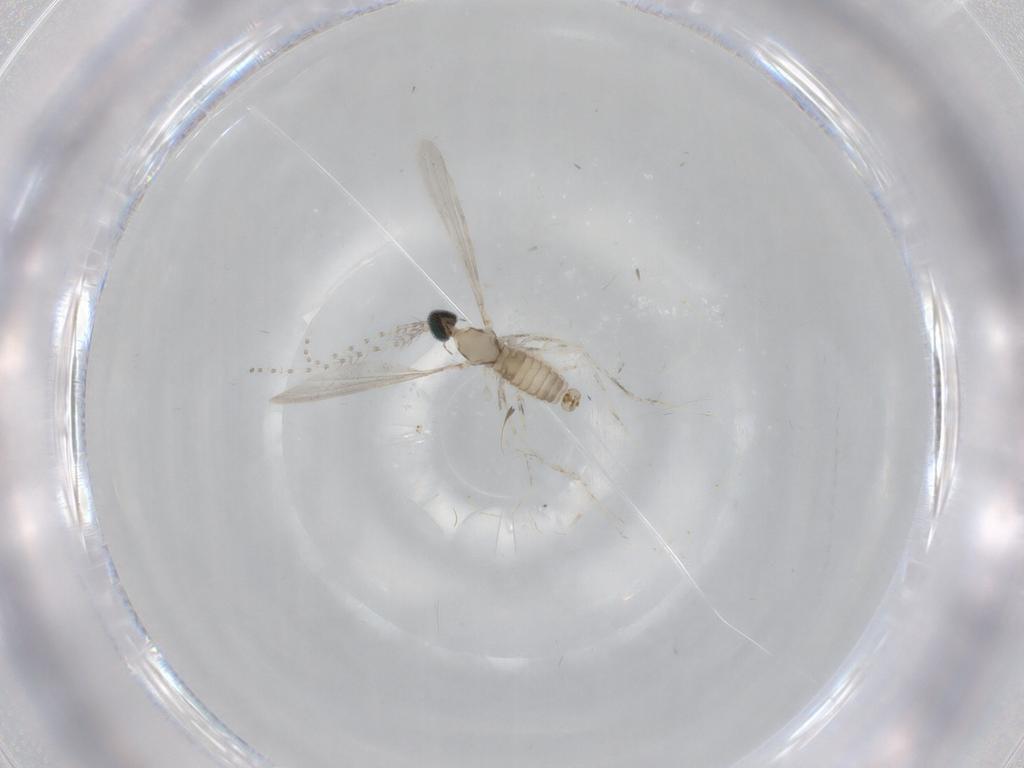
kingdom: Animalia
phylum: Arthropoda
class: Insecta
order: Diptera
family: Cecidomyiidae
